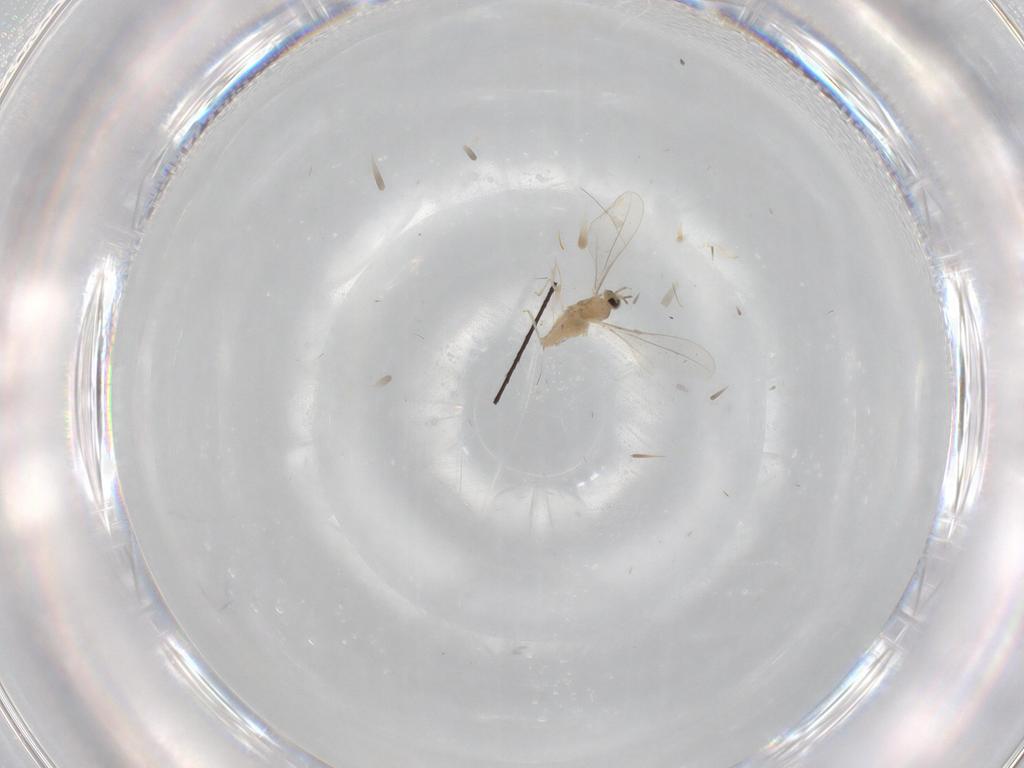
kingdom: Animalia
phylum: Arthropoda
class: Insecta
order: Diptera
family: Cecidomyiidae
